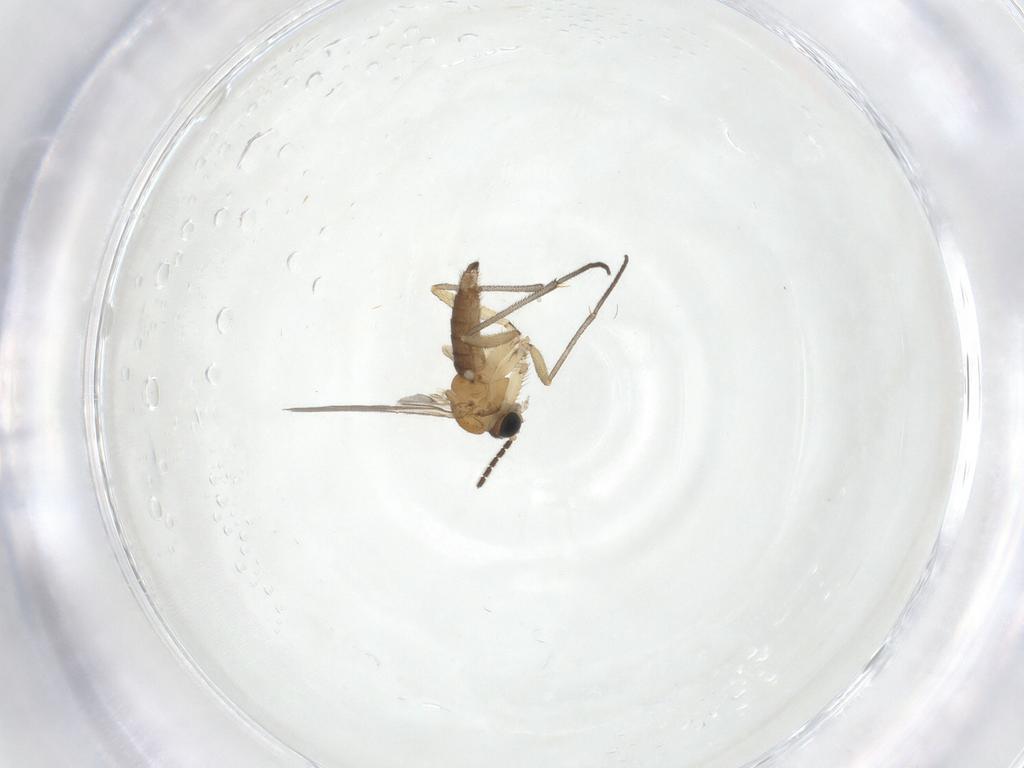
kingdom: Animalia
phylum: Arthropoda
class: Insecta
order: Diptera
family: Sciaridae
